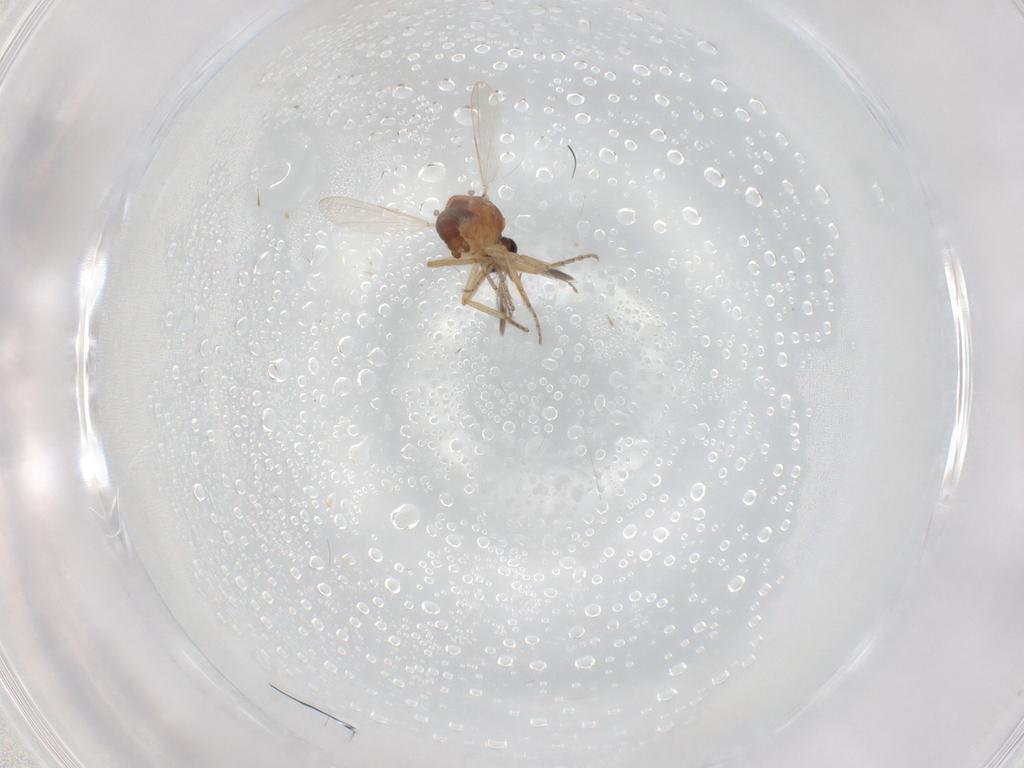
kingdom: Animalia
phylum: Arthropoda
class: Insecta
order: Diptera
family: Ceratopogonidae
